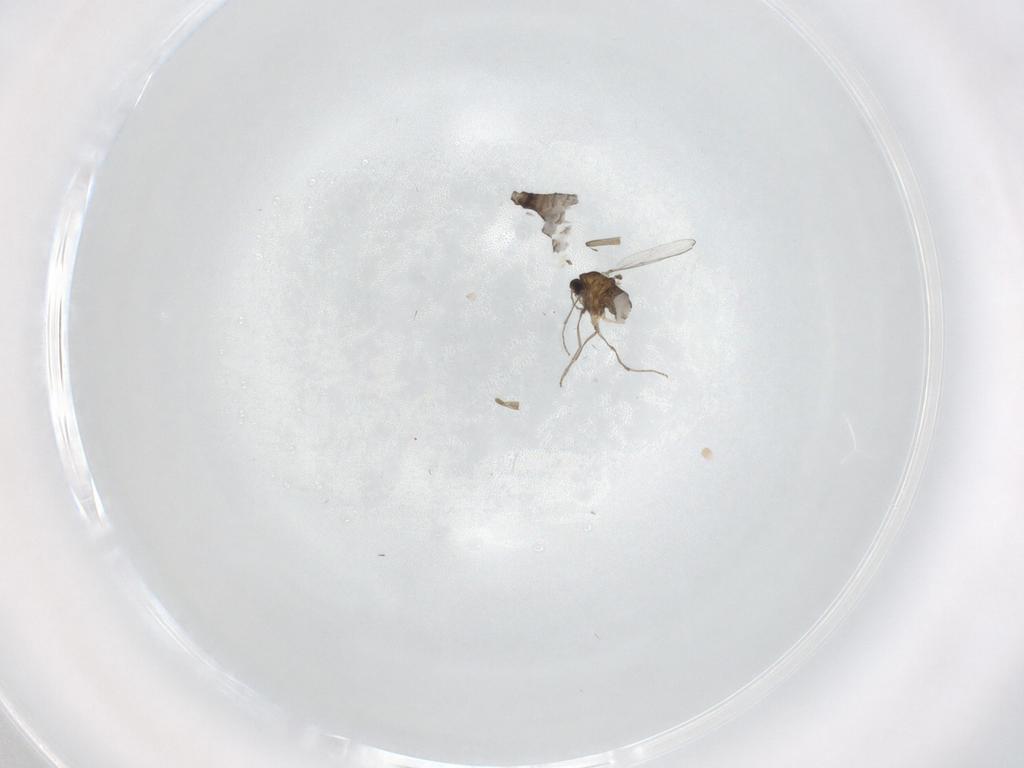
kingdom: Animalia
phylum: Arthropoda
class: Insecta
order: Diptera
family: Chironomidae
